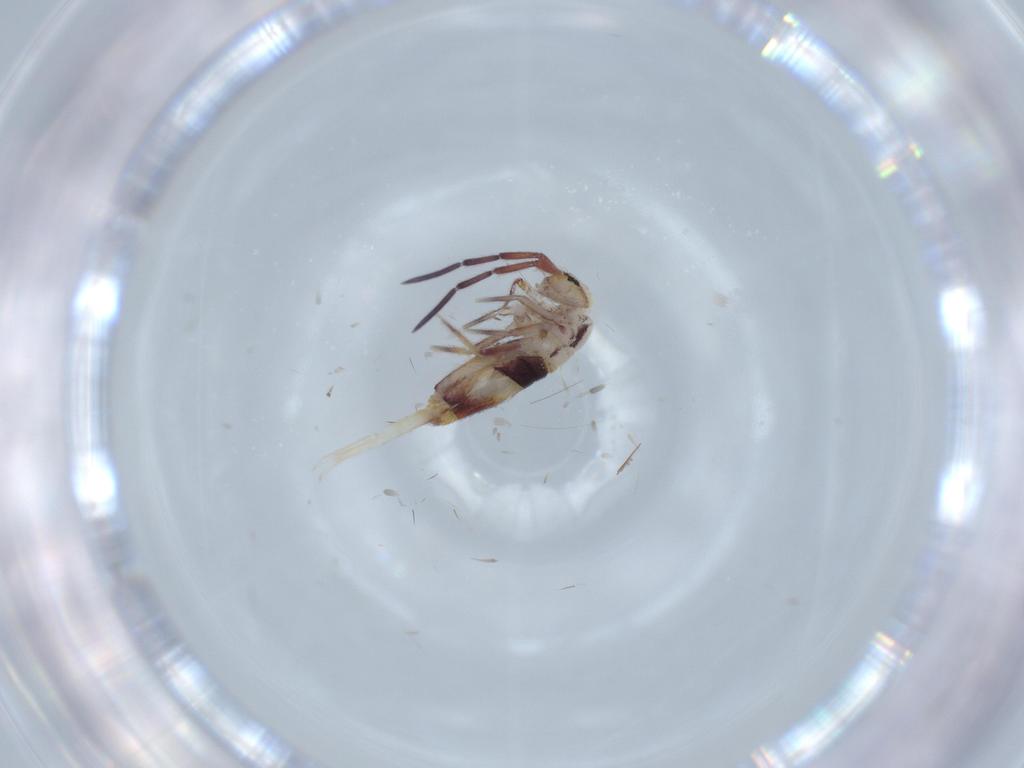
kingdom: Animalia
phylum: Arthropoda
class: Collembola
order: Entomobryomorpha
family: Entomobryidae
